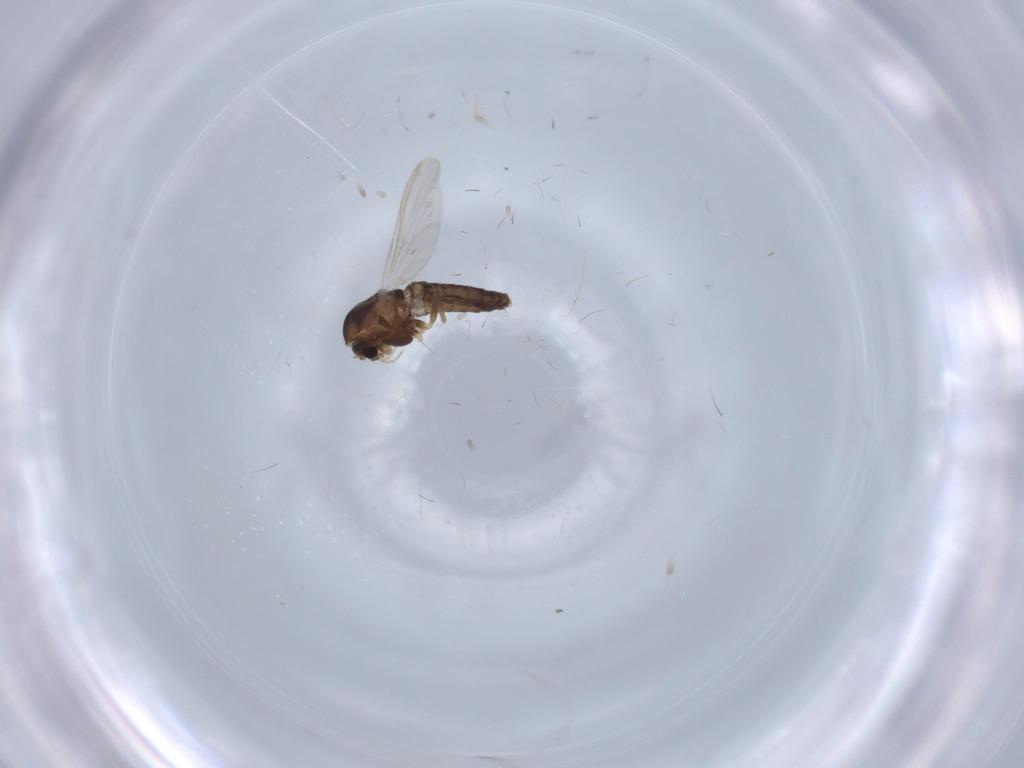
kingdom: Animalia
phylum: Arthropoda
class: Insecta
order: Diptera
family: Chironomidae
